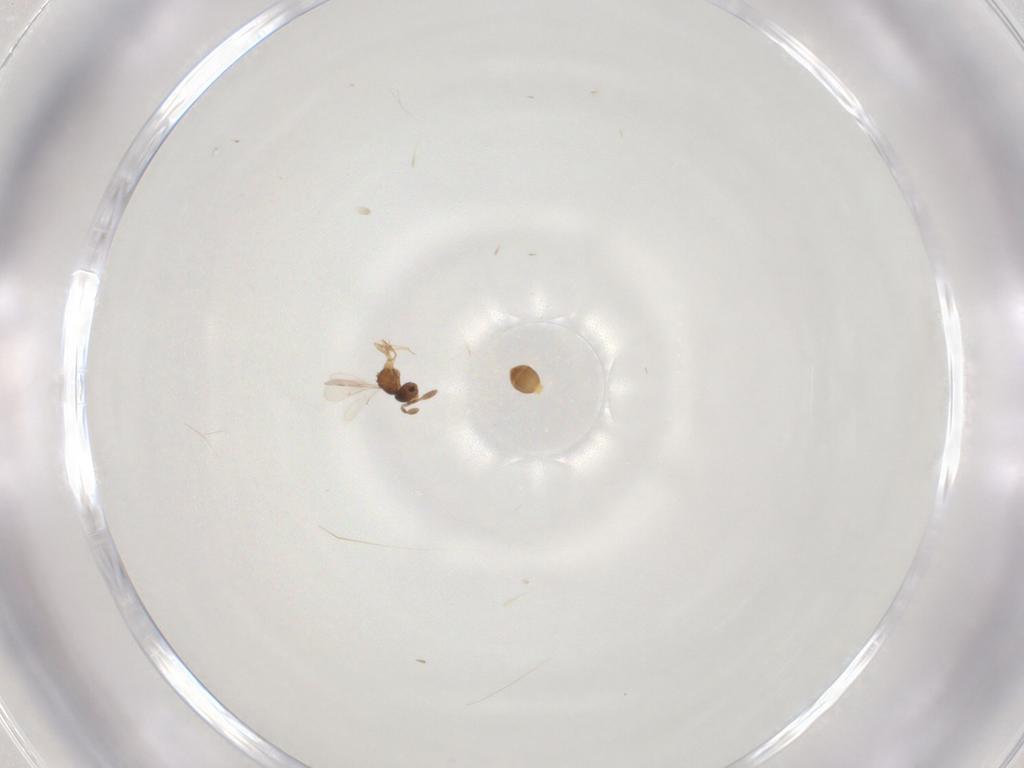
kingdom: Animalia
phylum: Arthropoda
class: Insecta
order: Hymenoptera
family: Scelionidae
